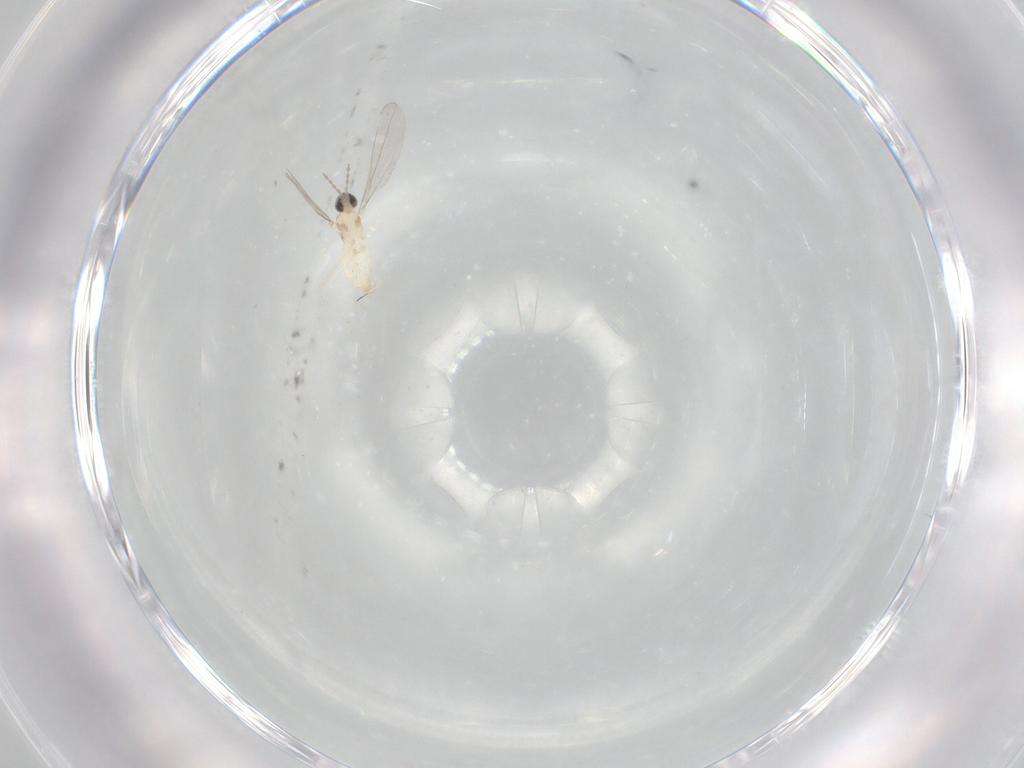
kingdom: Animalia
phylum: Arthropoda
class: Insecta
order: Diptera
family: Cecidomyiidae
